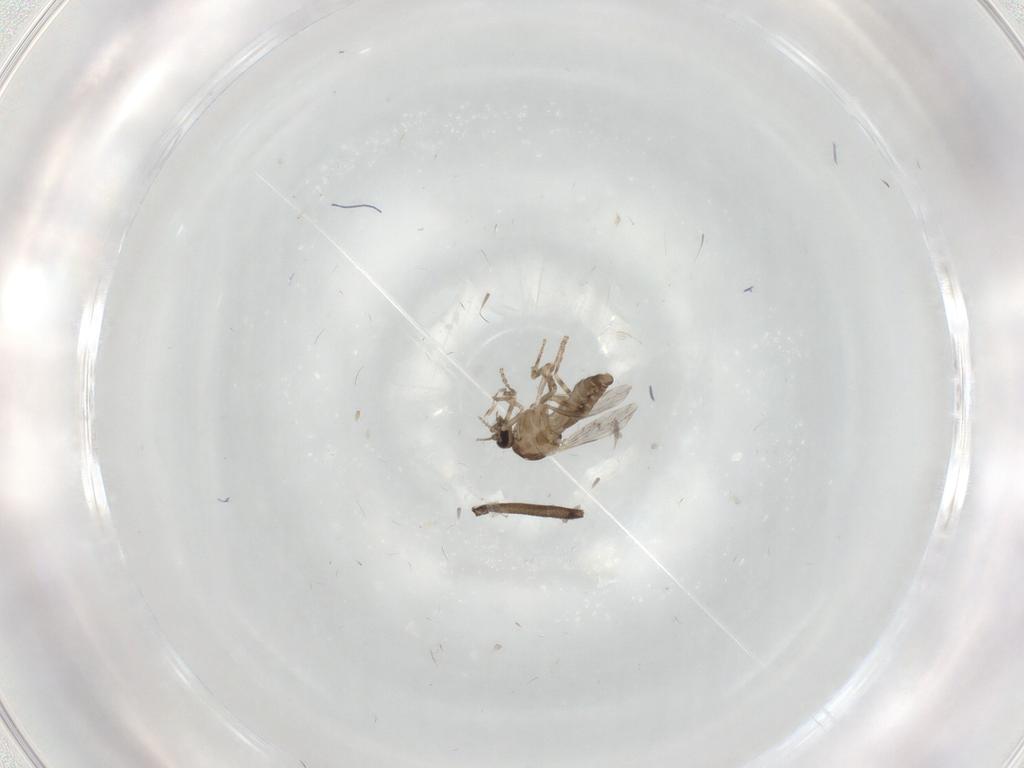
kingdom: Animalia
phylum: Arthropoda
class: Insecta
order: Diptera
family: Ceratopogonidae
